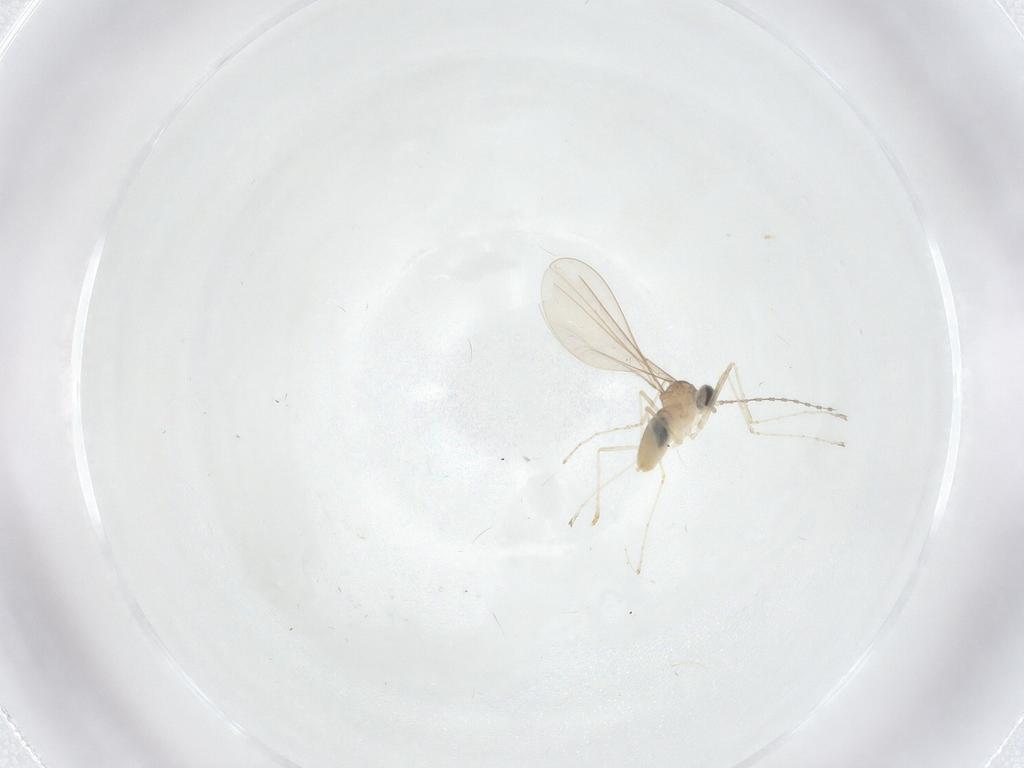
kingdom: Animalia
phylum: Arthropoda
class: Insecta
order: Diptera
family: Cecidomyiidae
